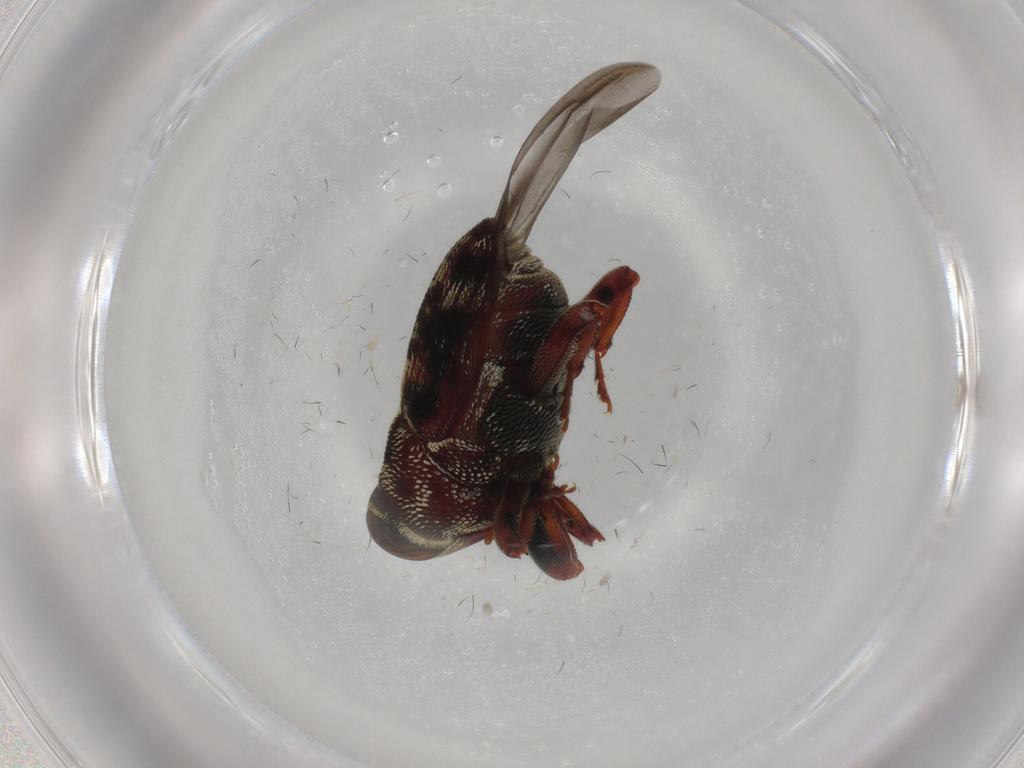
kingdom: Animalia
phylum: Arthropoda
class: Insecta
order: Coleoptera
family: Curculionidae
